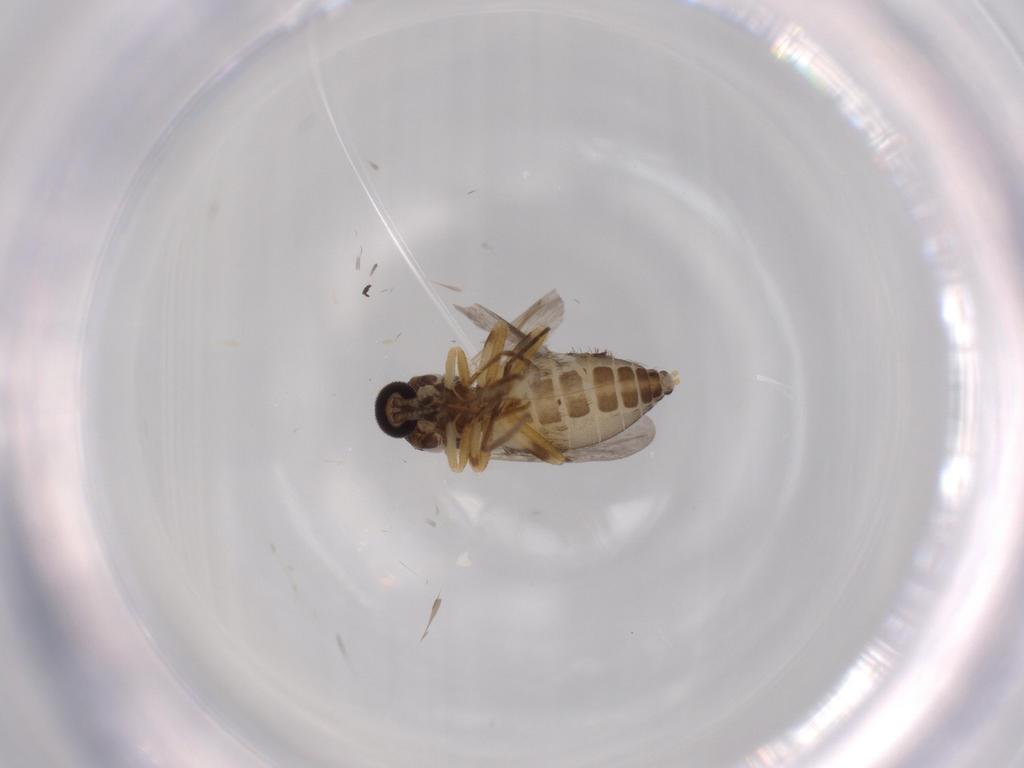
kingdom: Animalia
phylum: Arthropoda
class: Insecta
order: Diptera
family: Ceratopogonidae
